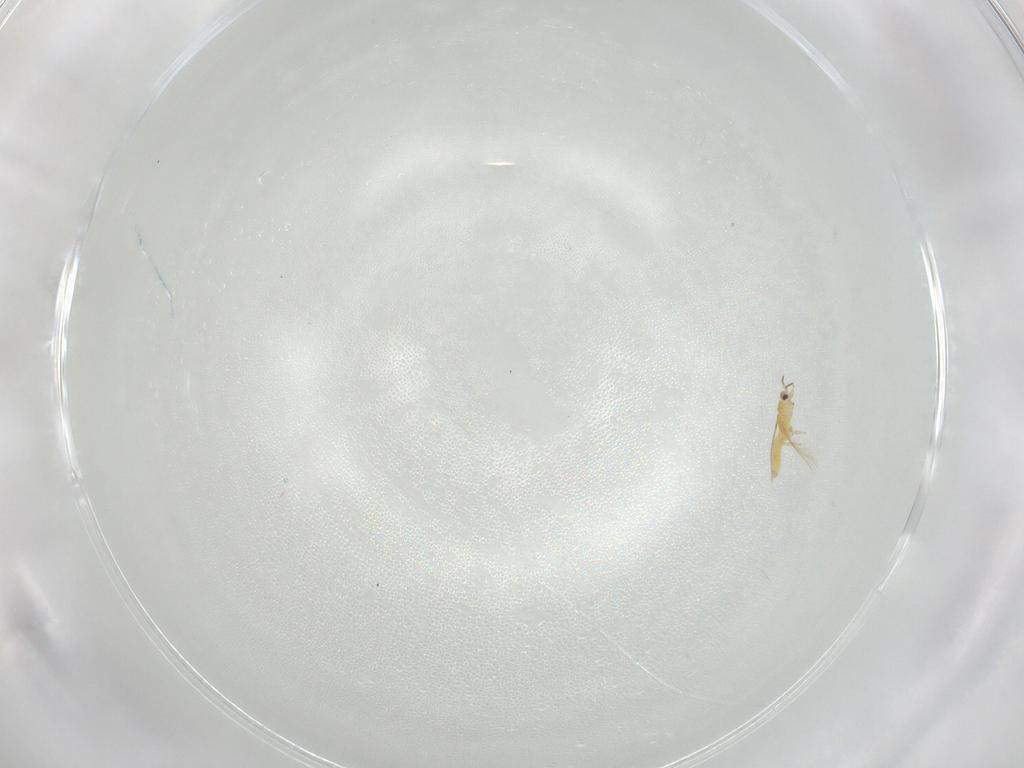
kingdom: Animalia
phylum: Arthropoda
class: Insecta
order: Thysanoptera
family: Thripidae
